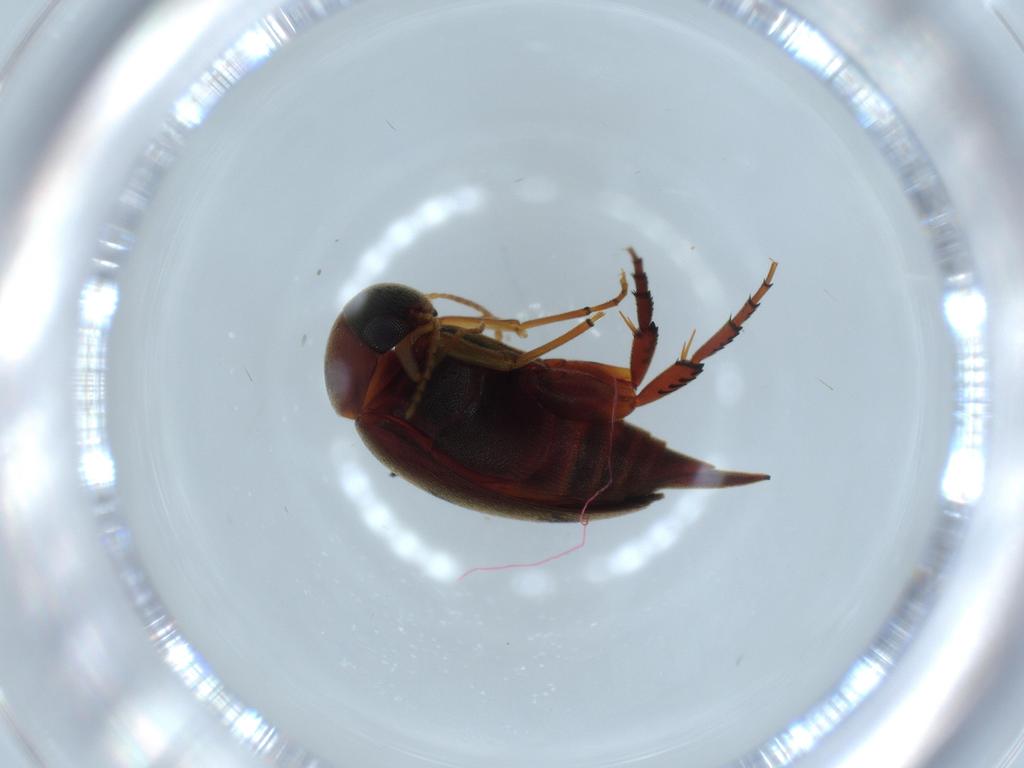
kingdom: Animalia
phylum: Arthropoda
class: Insecta
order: Coleoptera
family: Mordellidae
